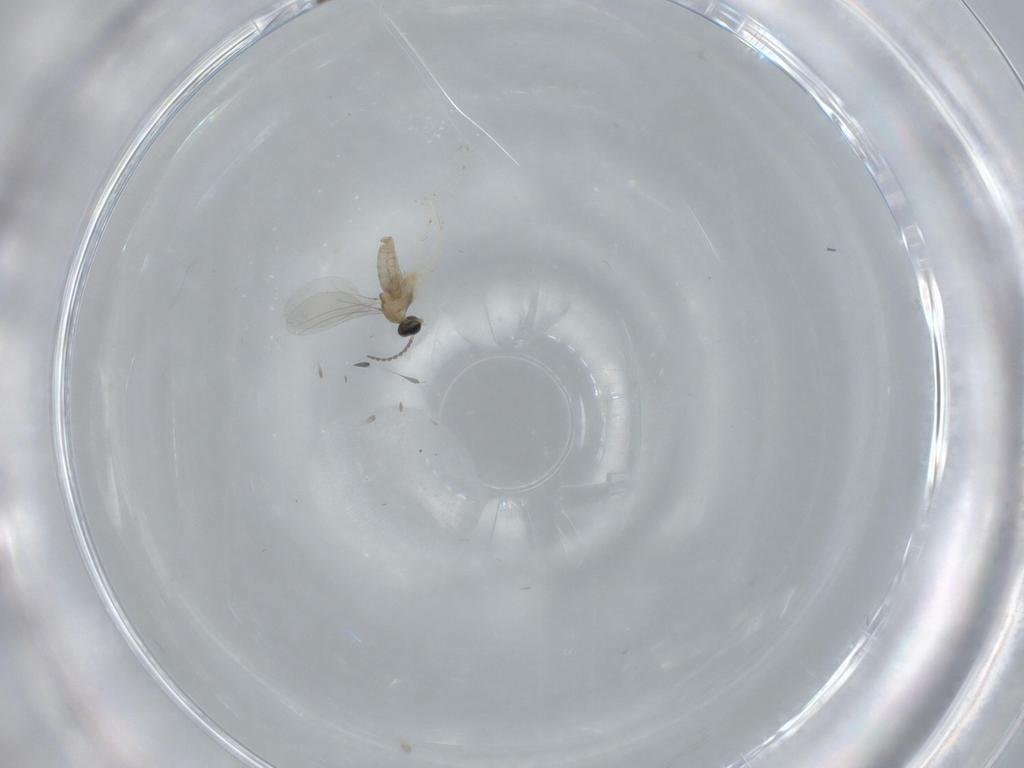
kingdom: Animalia
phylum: Arthropoda
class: Insecta
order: Diptera
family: Cecidomyiidae
